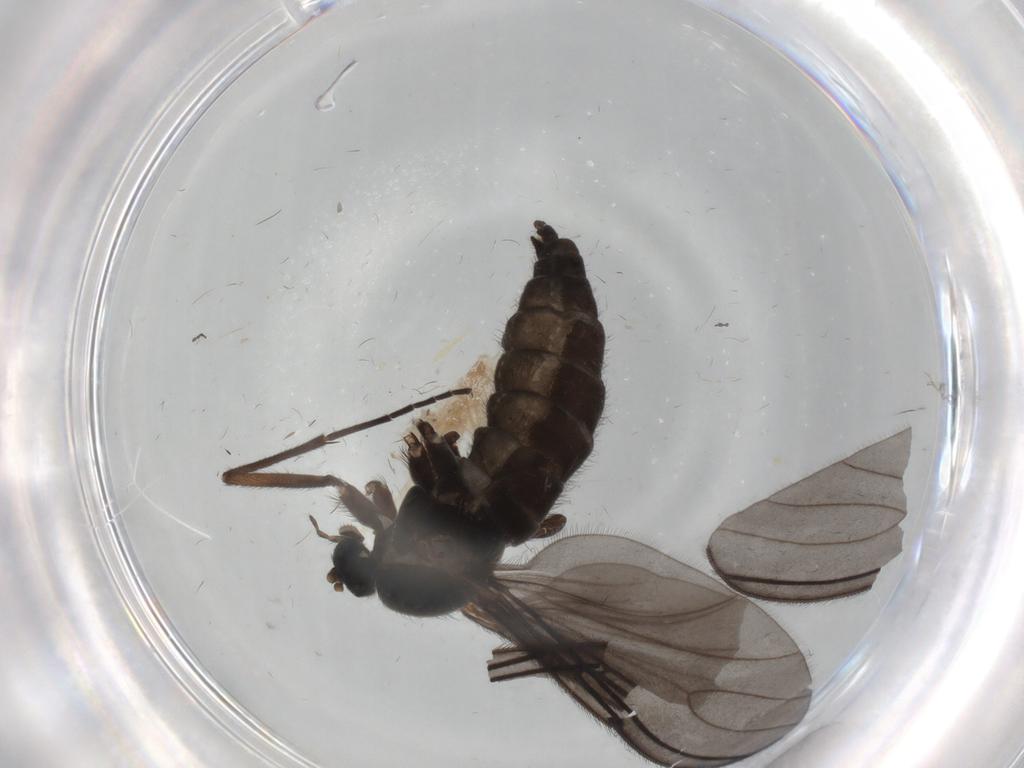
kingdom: Animalia
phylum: Arthropoda
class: Insecta
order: Diptera
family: Sciaridae
